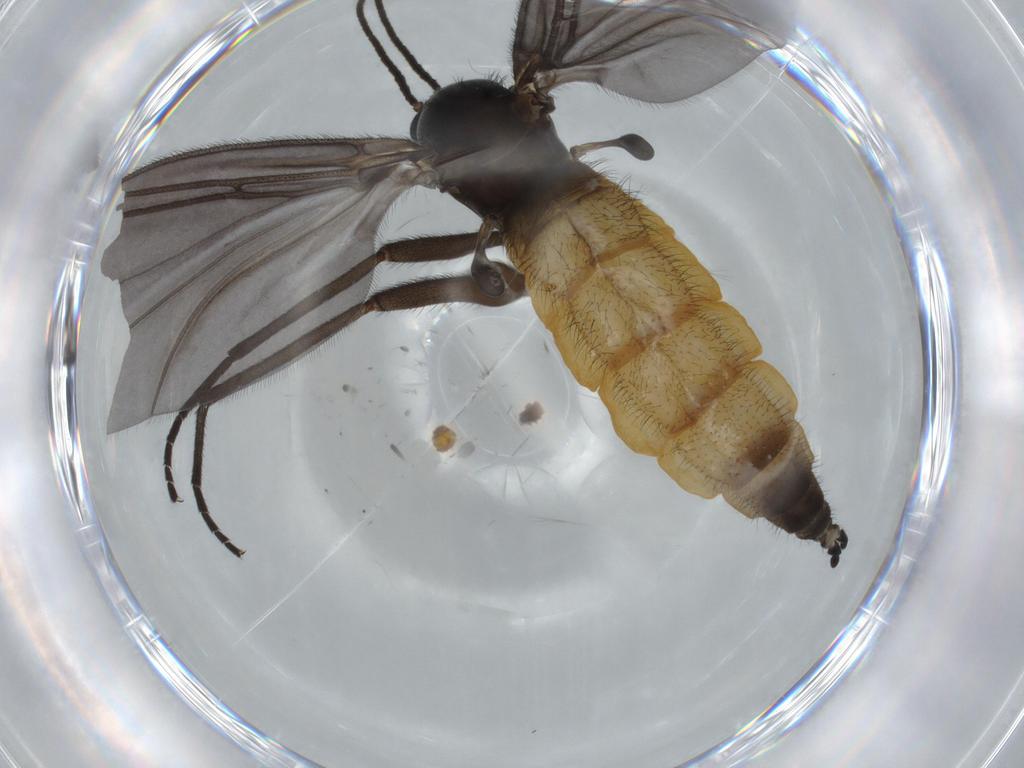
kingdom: Animalia
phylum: Arthropoda
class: Insecta
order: Diptera
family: Chironomidae
